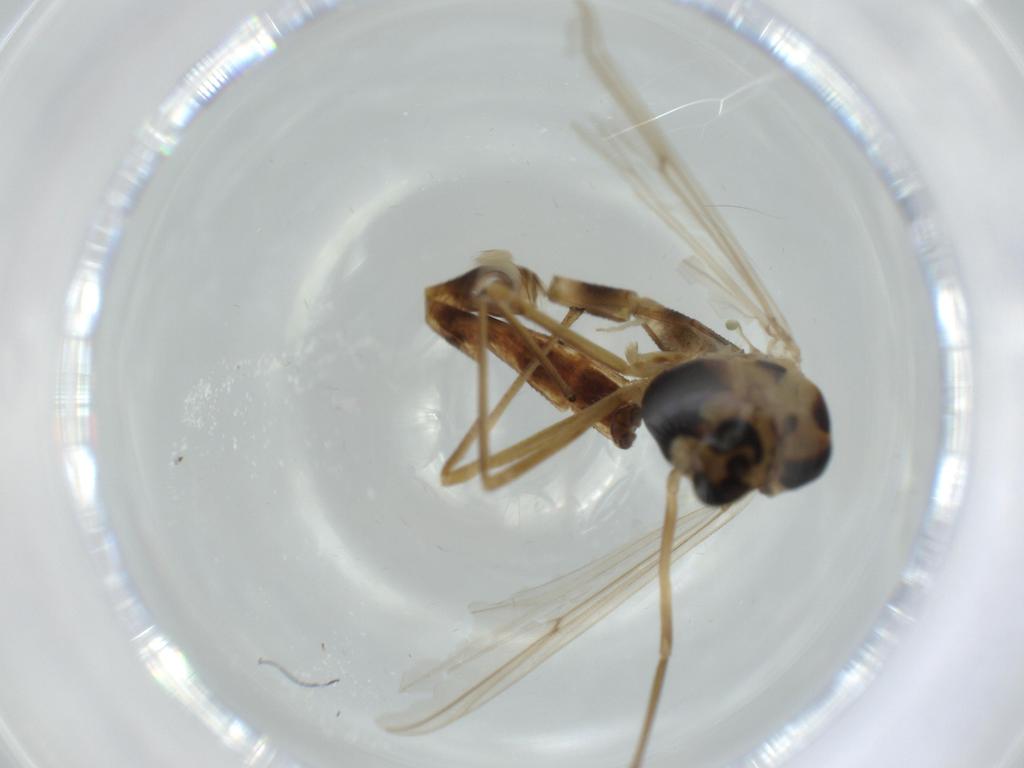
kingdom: Animalia
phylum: Arthropoda
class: Insecta
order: Diptera
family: Chironomidae
